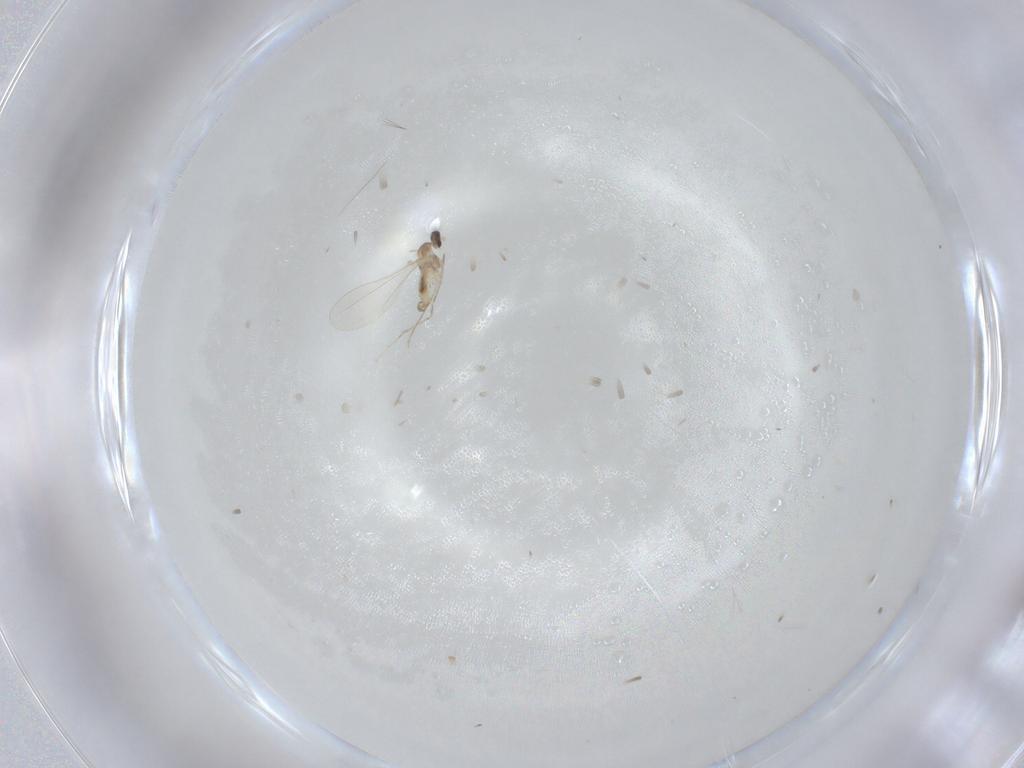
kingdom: Animalia
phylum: Arthropoda
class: Insecta
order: Diptera
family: Cecidomyiidae
